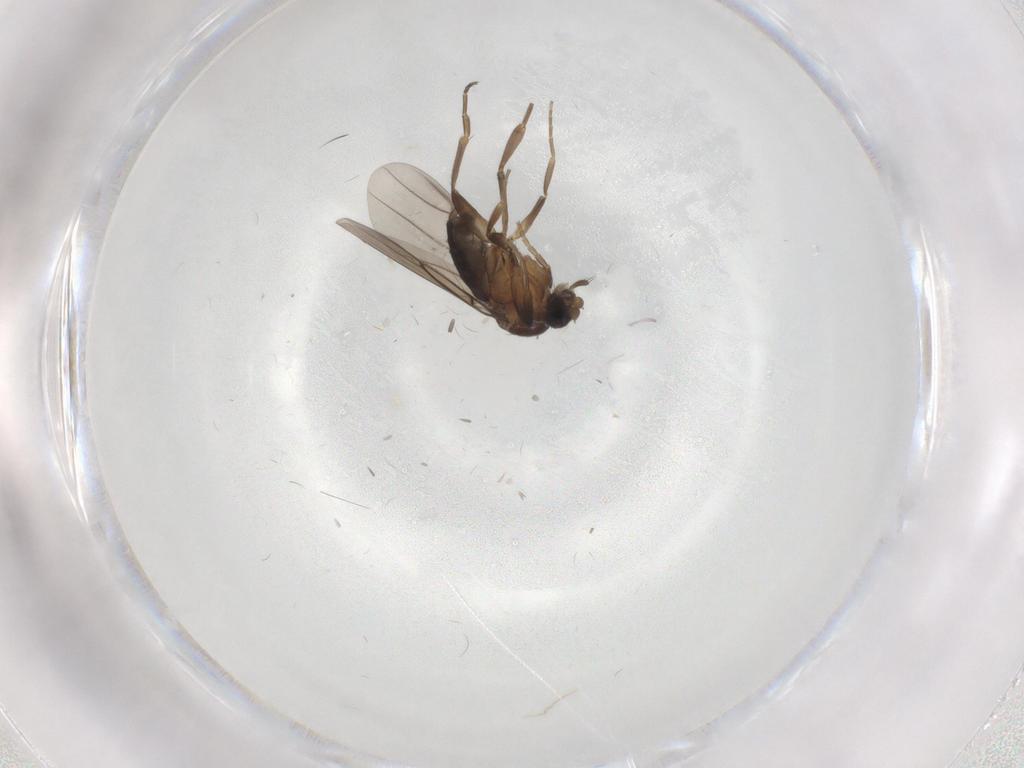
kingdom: Animalia
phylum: Arthropoda
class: Insecta
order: Diptera
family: Phoridae
